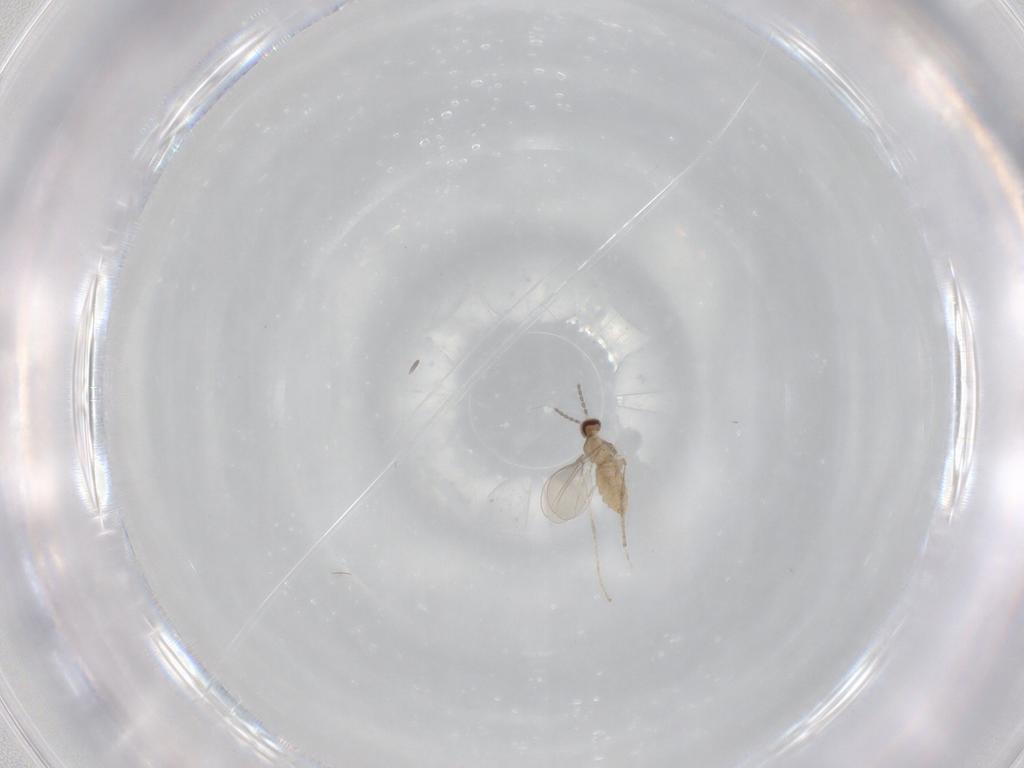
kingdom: Animalia
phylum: Arthropoda
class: Insecta
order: Diptera
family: Cecidomyiidae
